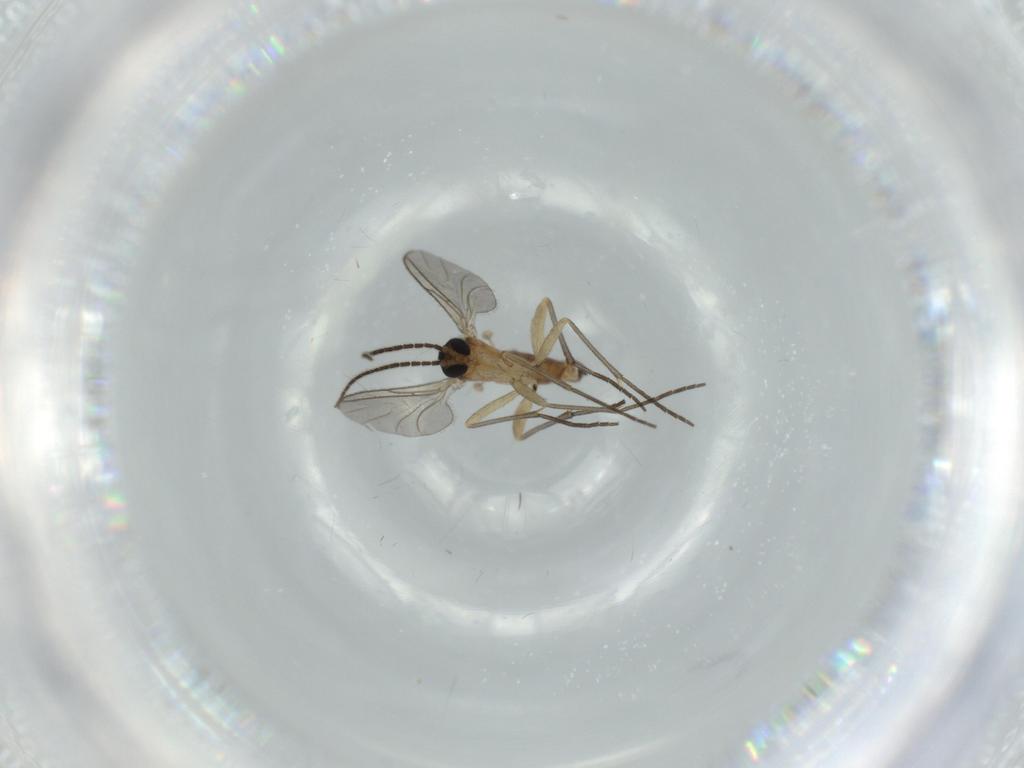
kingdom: Animalia
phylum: Arthropoda
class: Insecta
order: Diptera
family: Sciaridae
